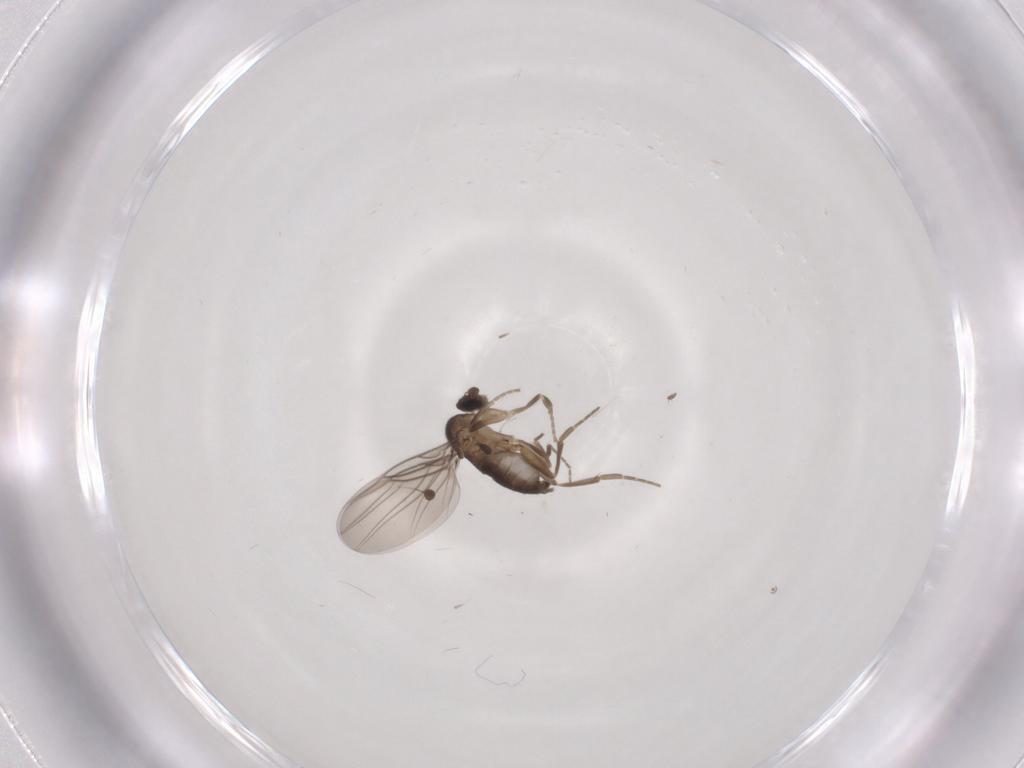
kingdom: Animalia
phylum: Arthropoda
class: Insecta
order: Diptera
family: Phoridae
